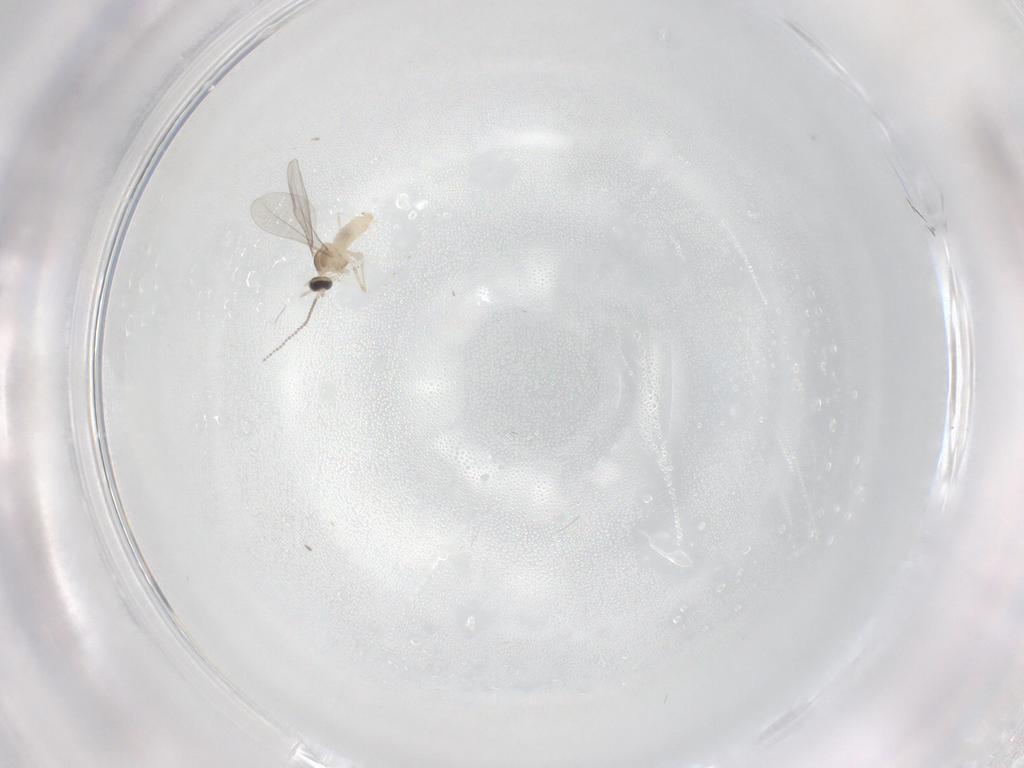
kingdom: Animalia
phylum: Arthropoda
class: Insecta
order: Diptera
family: Cecidomyiidae
